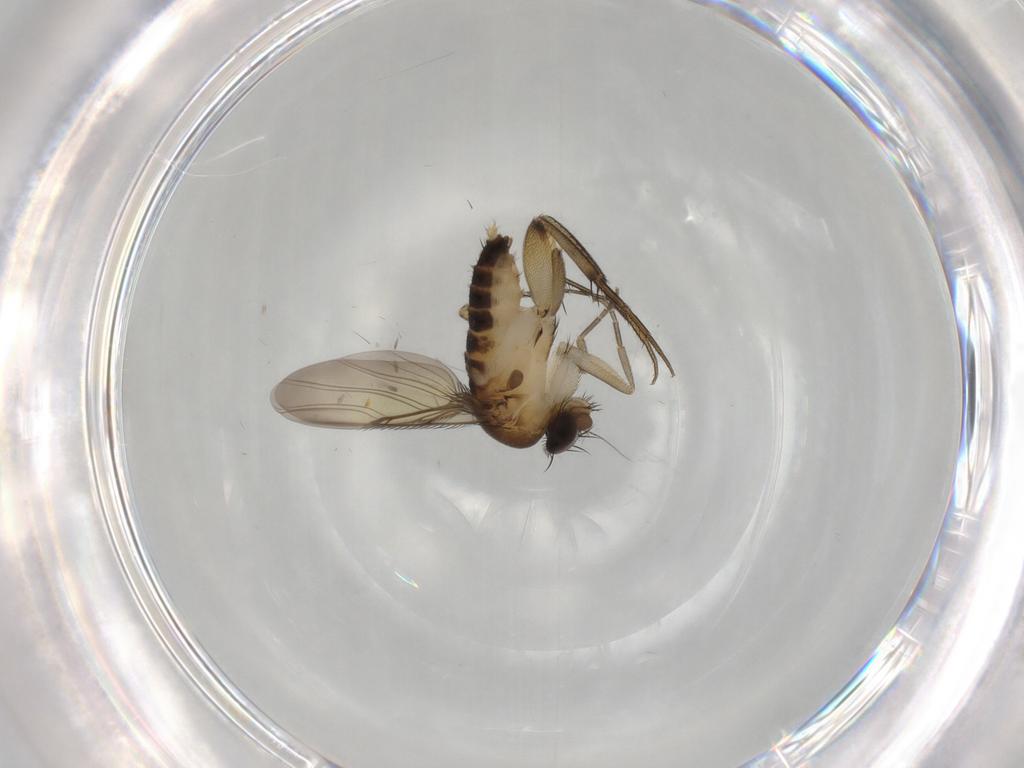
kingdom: Animalia
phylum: Arthropoda
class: Insecta
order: Diptera
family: Phoridae
